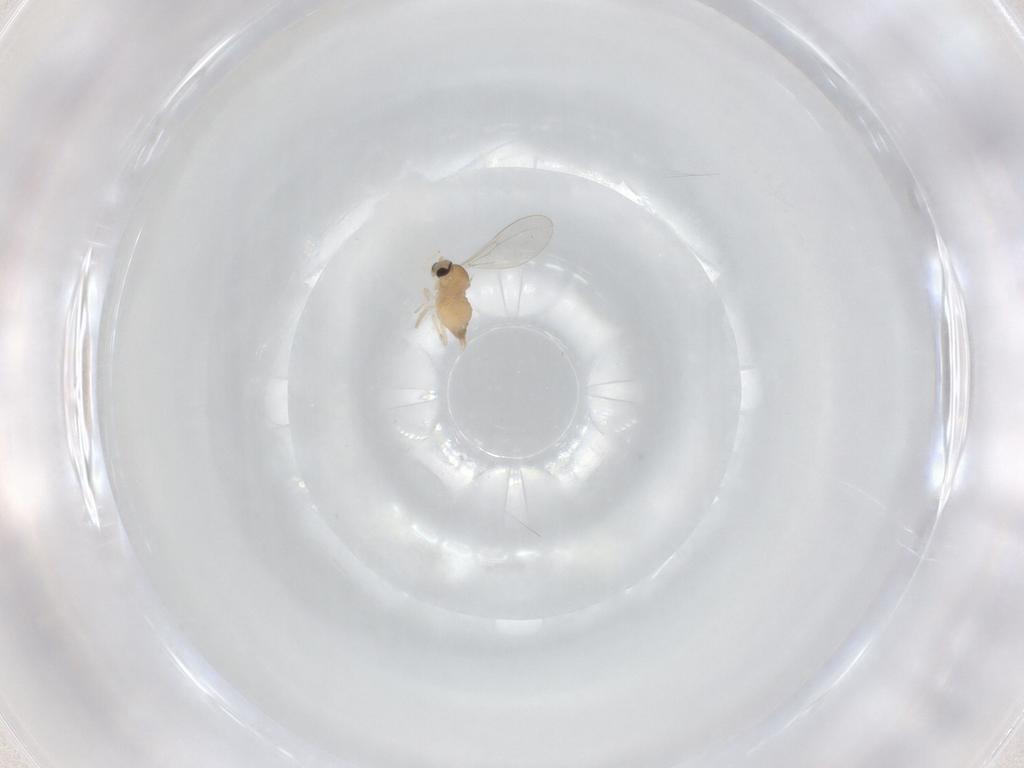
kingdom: Animalia
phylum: Arthropoda
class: Insecta
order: Diptera
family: Cecidomyiidae
